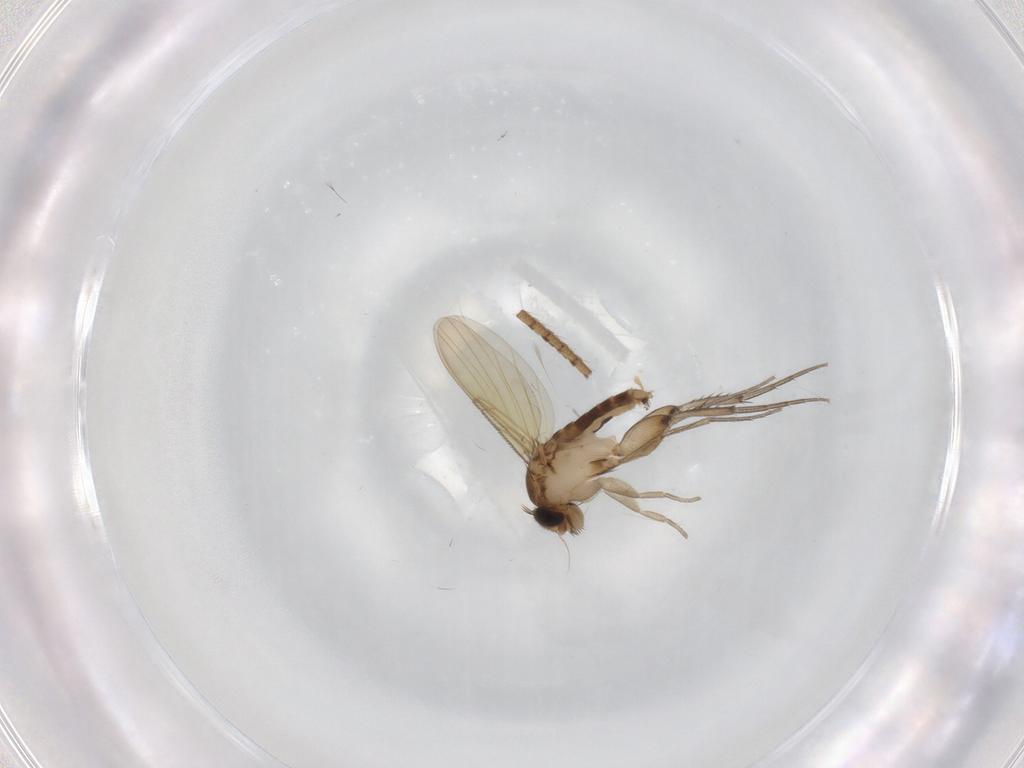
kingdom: Animalia
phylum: Arthropoda
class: Insecta
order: Diptera
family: Phoridae
